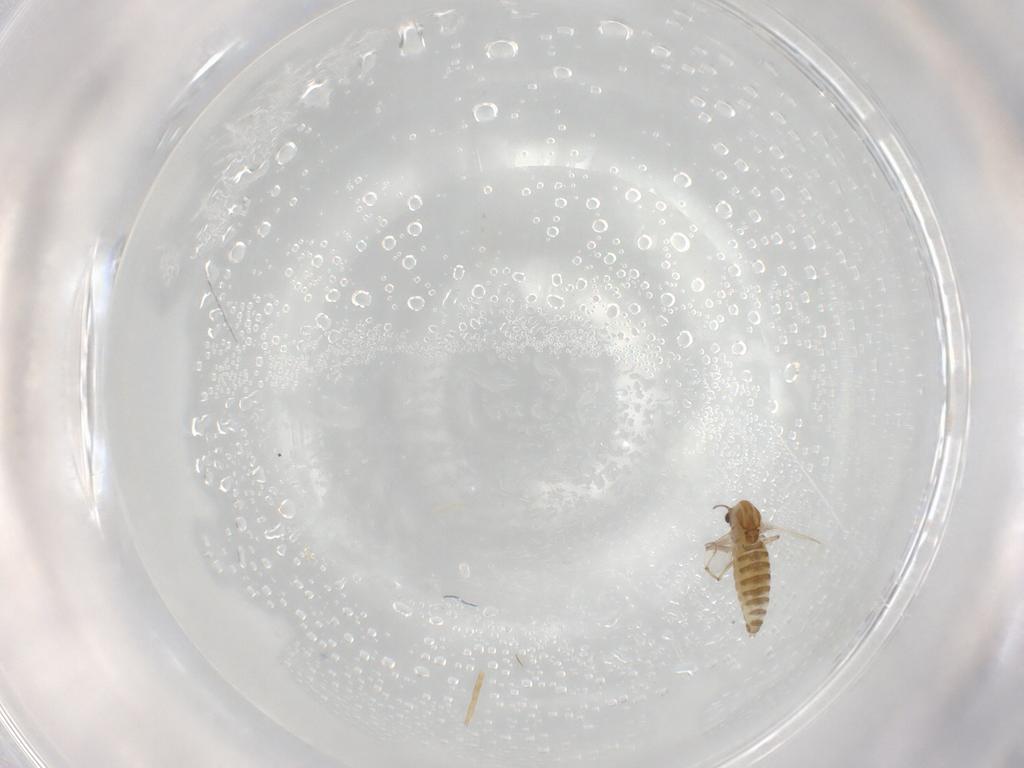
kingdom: Animalia
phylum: Arthropoda
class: Insecta
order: Diptera
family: Chironomidae
